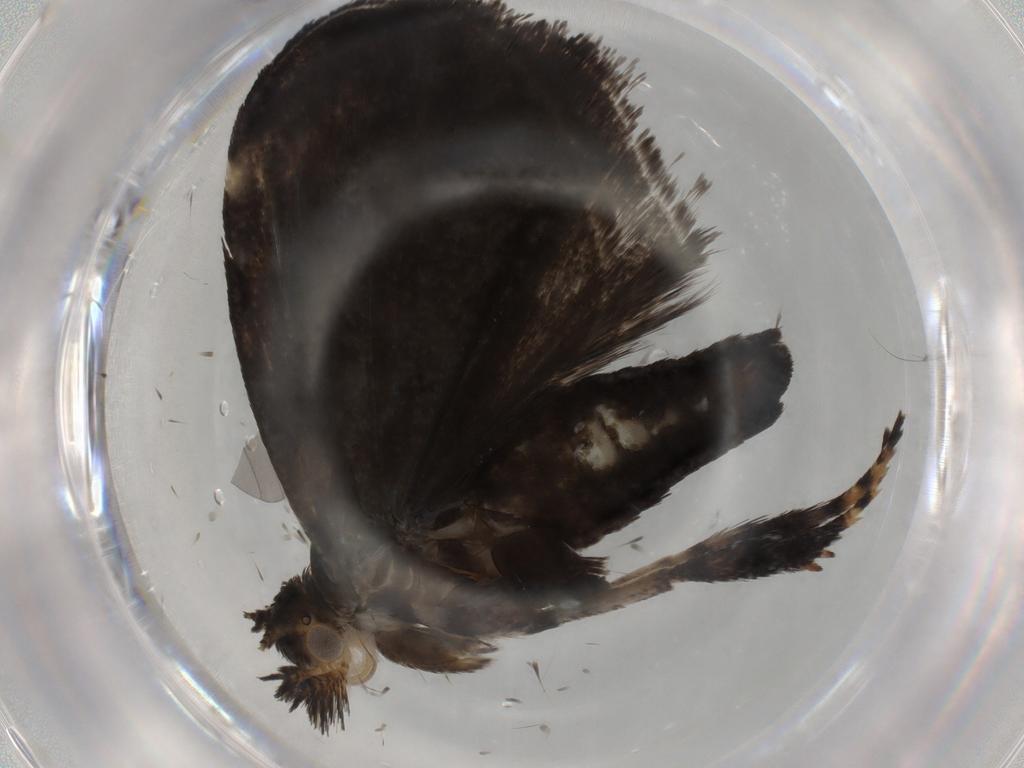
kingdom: Animalia
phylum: Arthropoda
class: Insecta
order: Lepidoptera
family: Choreutidae
